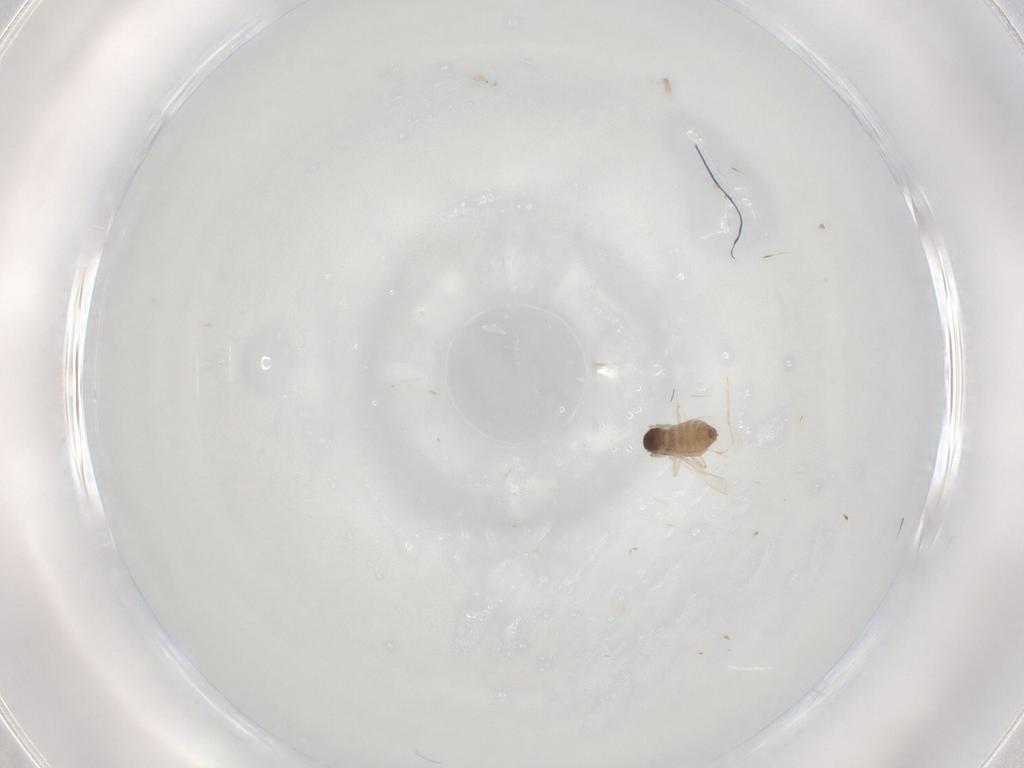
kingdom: Animalia
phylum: Arthropoda
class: Insecta
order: Diptera
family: Cecidomyiidae
